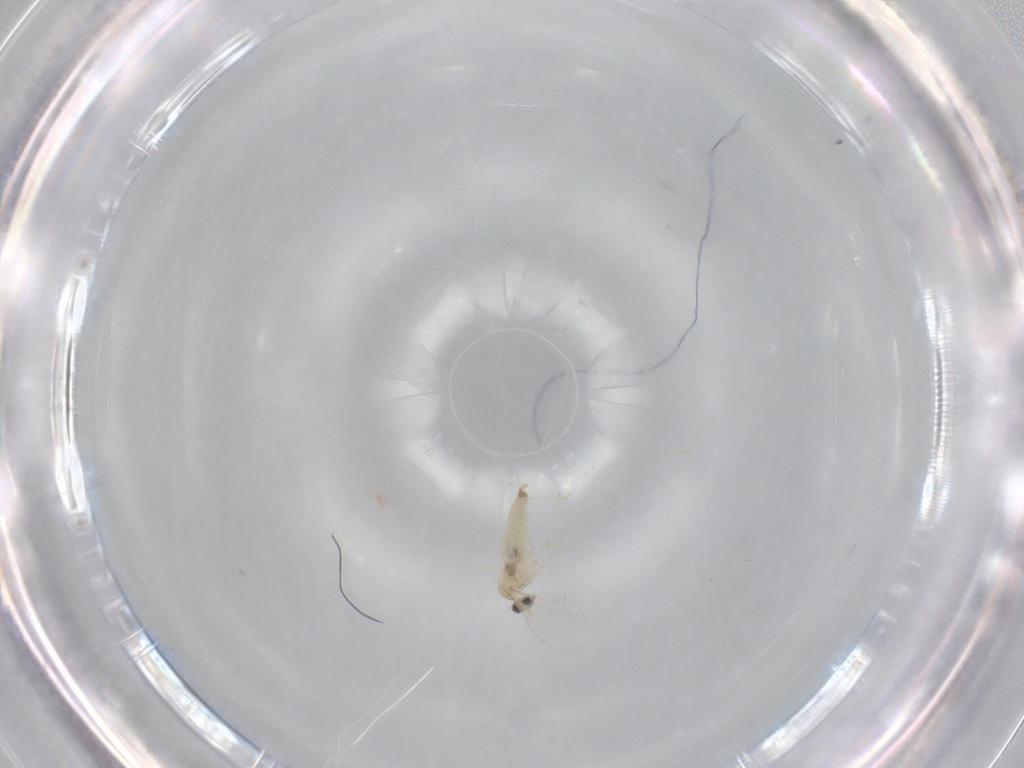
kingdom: Animalia
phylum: Arthropoda
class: Insecta
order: Diptera
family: Cecidomyiidae
